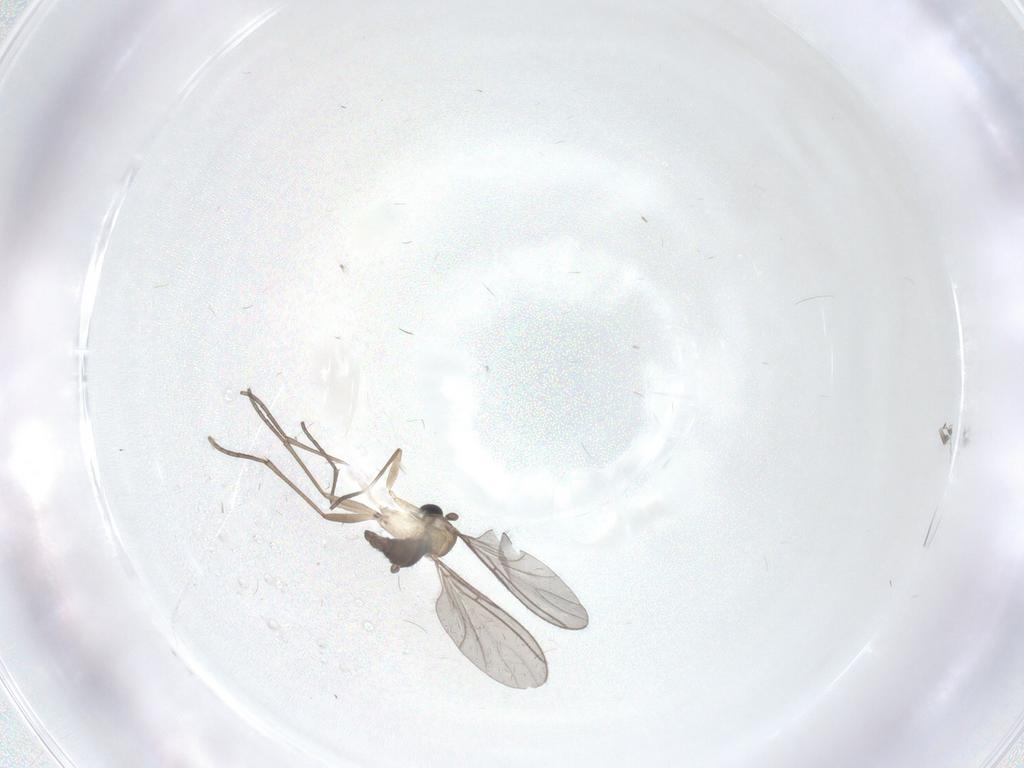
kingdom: Animalia
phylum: Arthropoda
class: Insecta
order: Diptera
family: Sciaridae
